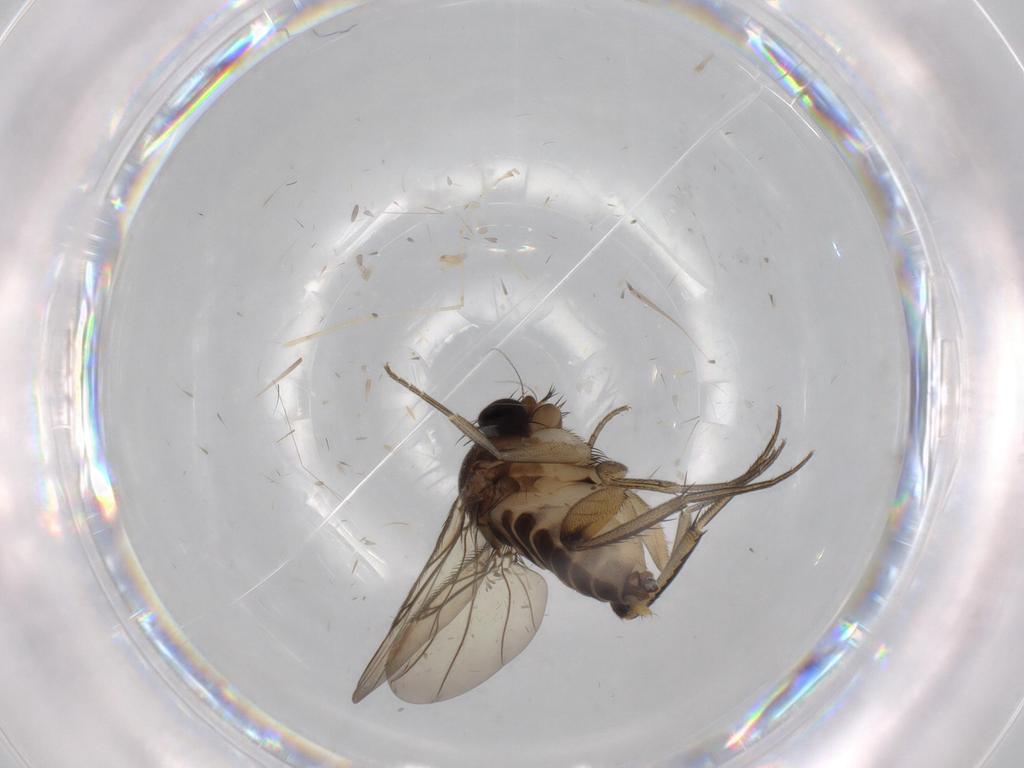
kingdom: Animalia
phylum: Arthropoda
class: Insecta
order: Diptera
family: Phoridae
